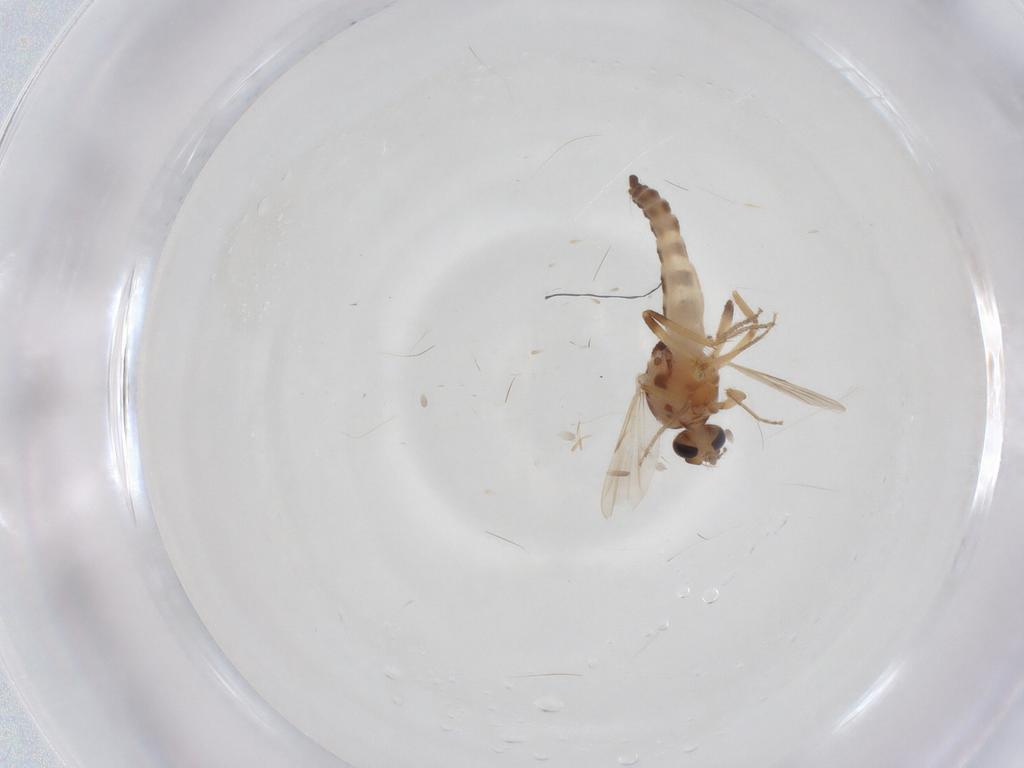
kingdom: Animalia
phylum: Arthropoda
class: Insecta
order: Diptera
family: Ceratopogonidae
